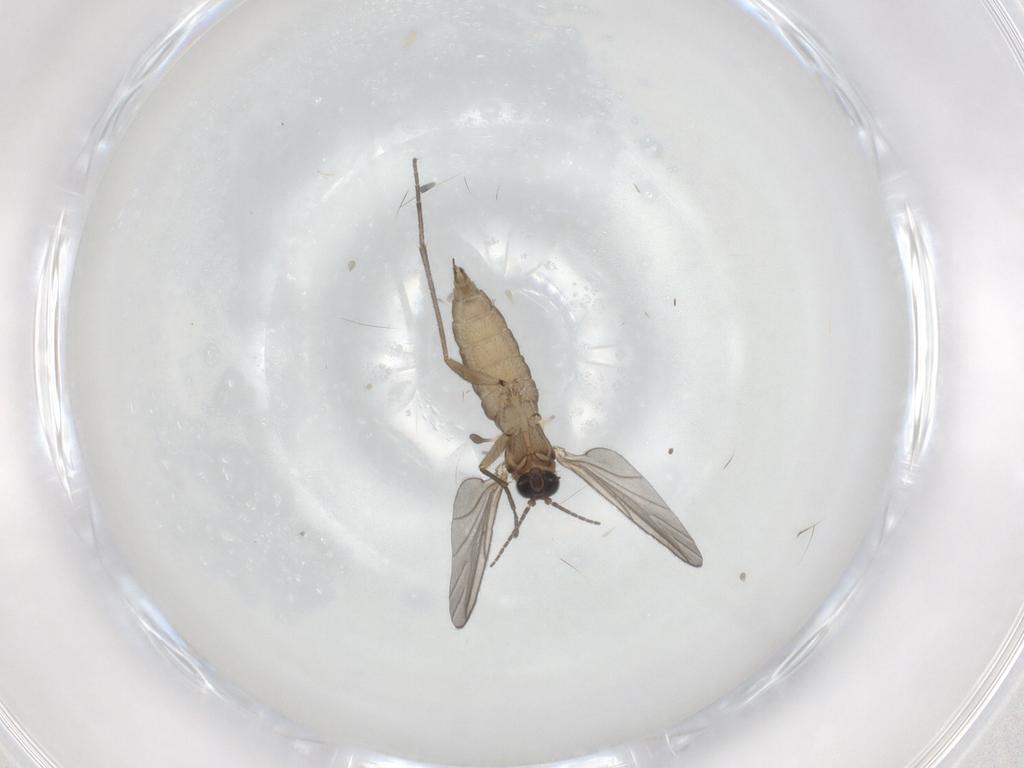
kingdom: Animalia
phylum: Arthropoda
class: Insecta
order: Diptera
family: Sciaridae
